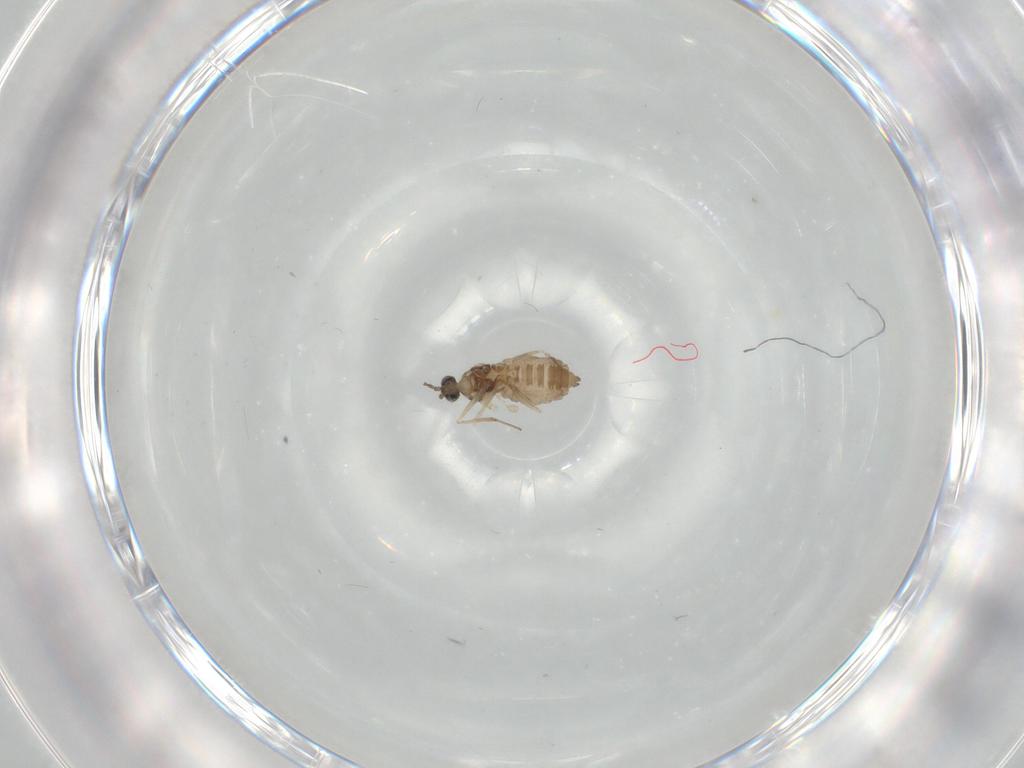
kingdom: Animalia
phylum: Arthropoda
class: Insecta
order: Diptera
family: Cecidomyiidae
